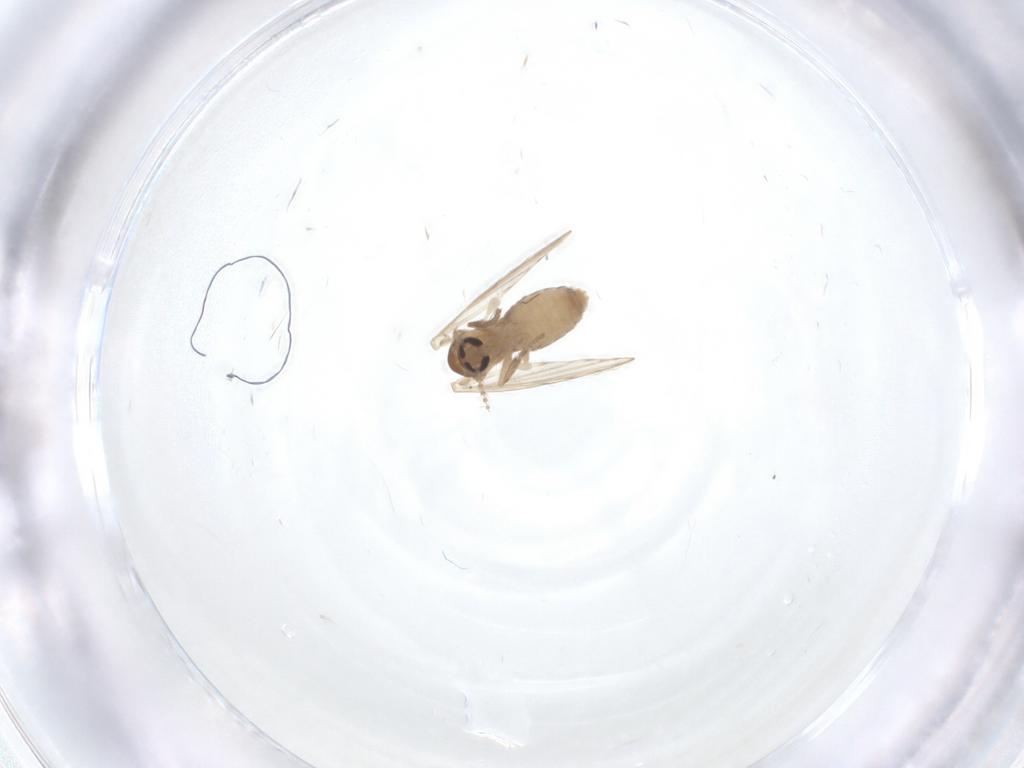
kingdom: Animalia
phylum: Arthropoda
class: Insecta
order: Diptera
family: Psychodidae
